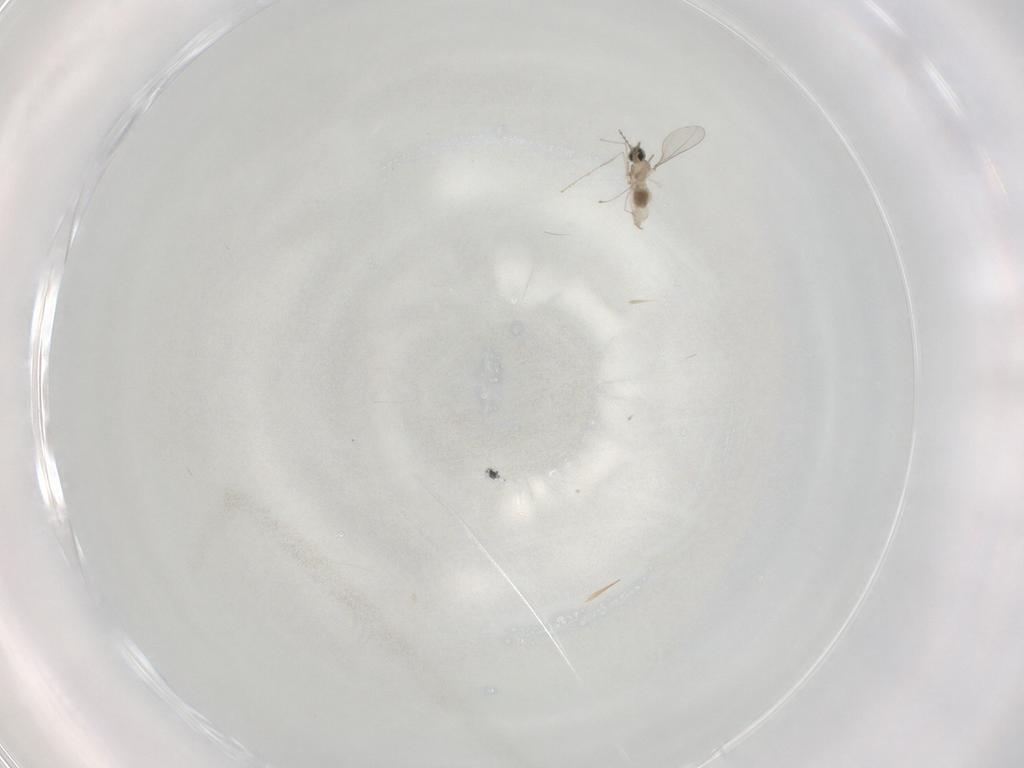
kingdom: Animalia
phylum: Arthropoda
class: Insecta
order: Diptera
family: Cecidomyiidae
